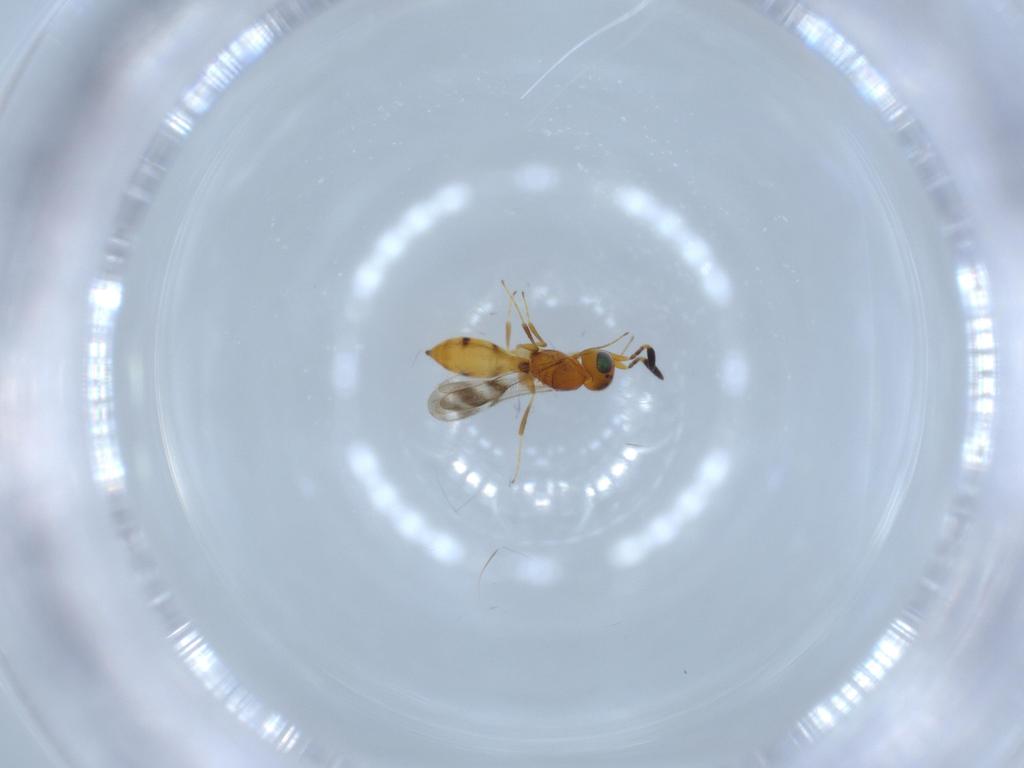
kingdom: Animalia
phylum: Arthropoda
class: Insecta
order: Hymenoptera
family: Scelionidae
